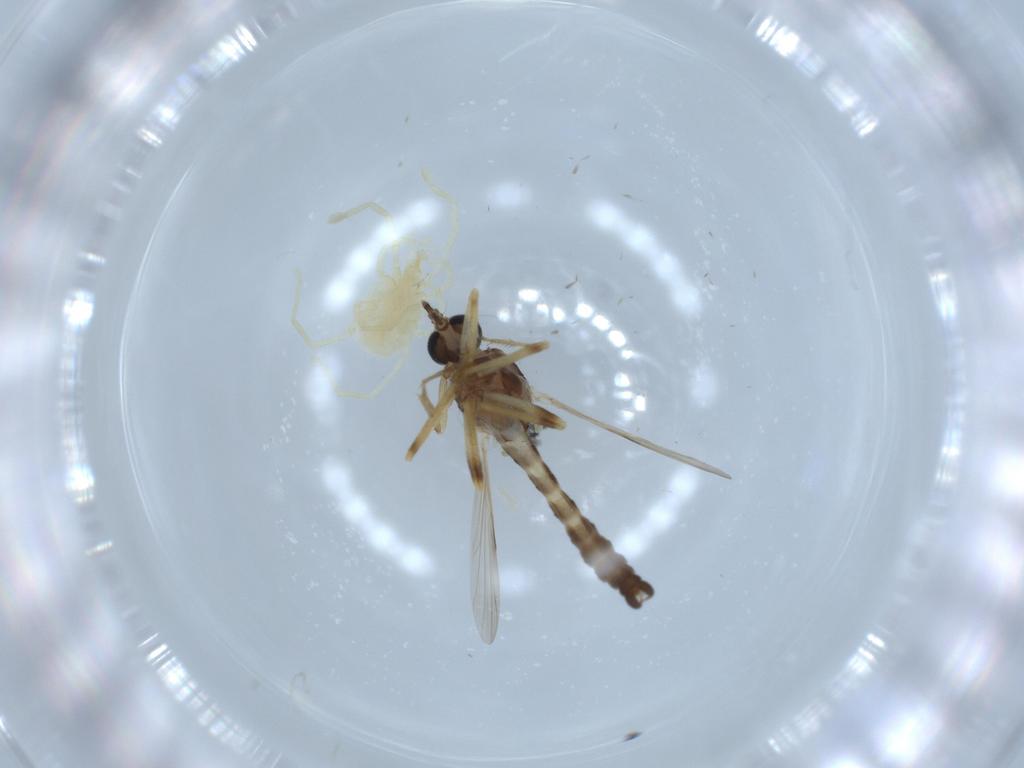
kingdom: Animalia
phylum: Arthropoda
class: Insecta
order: Diptera
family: Ceratopogonidae
